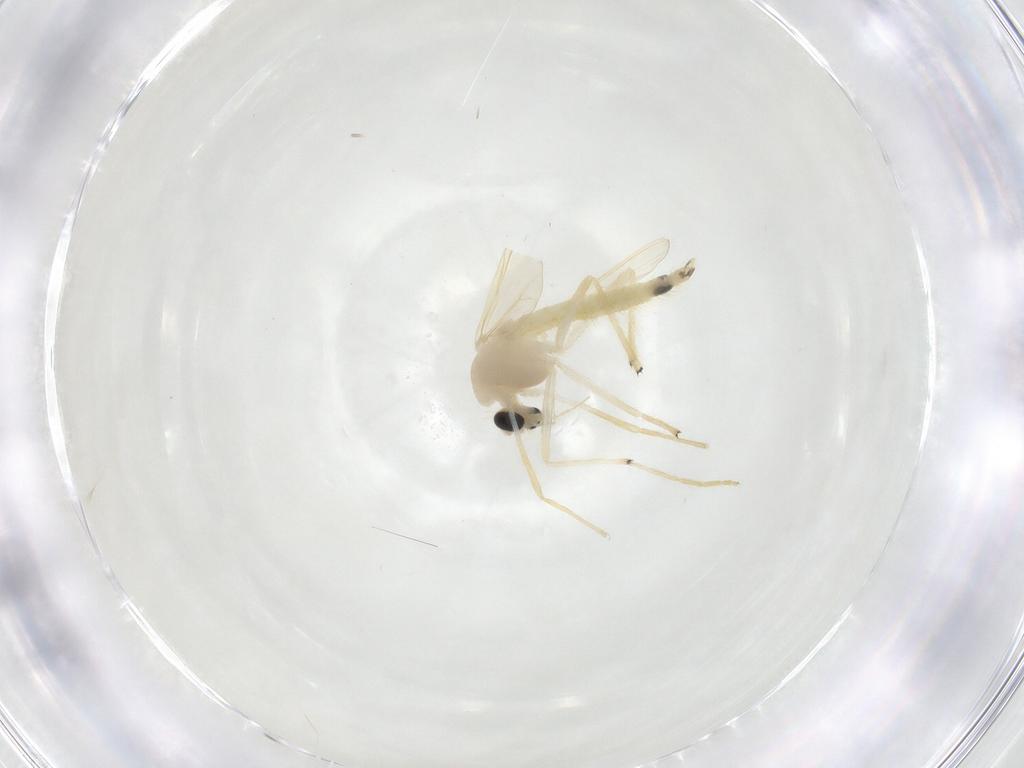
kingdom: Animalia
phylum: Arthropoda
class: Insecta
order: Diptera
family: Chironomidae
